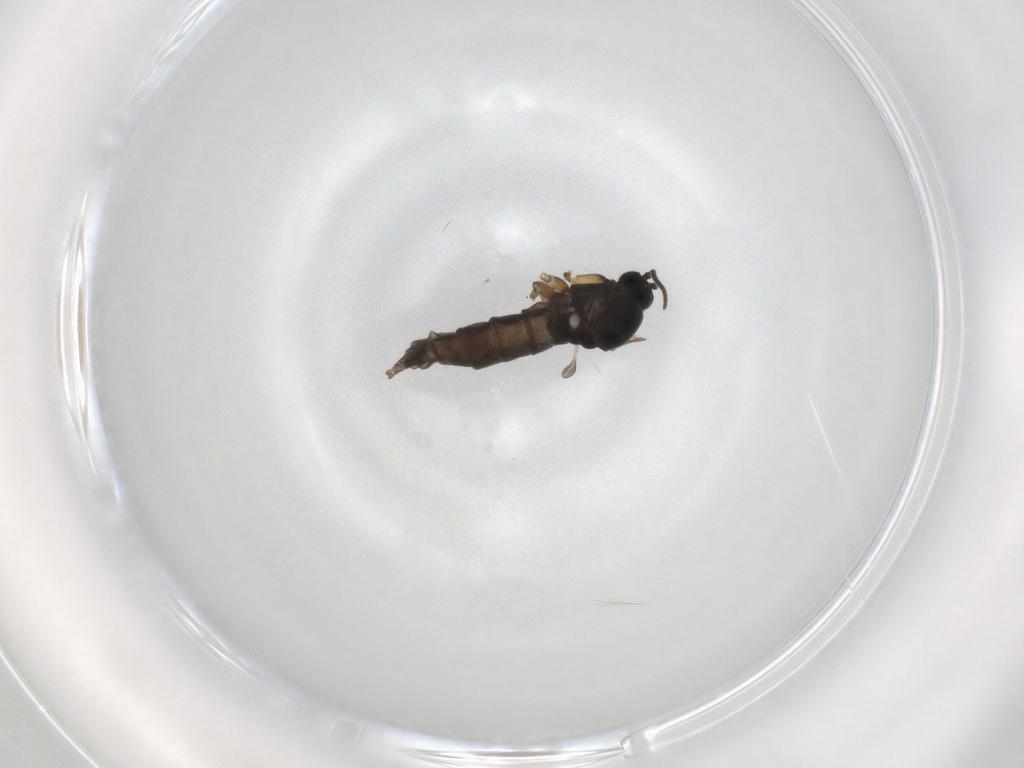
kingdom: Animalia
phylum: Arthropoda
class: Insecta
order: Diptera
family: Sciaridae
